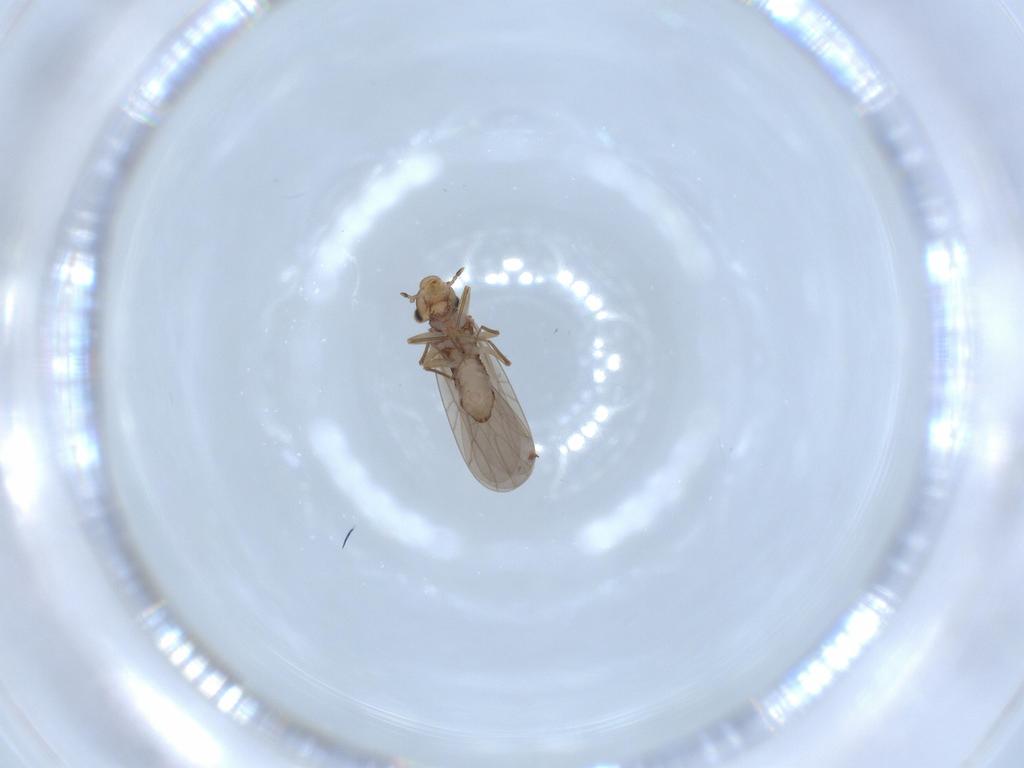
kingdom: Animalia
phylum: Arthropoda
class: Insecta
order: Psocodea
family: Lepidopsocidae
